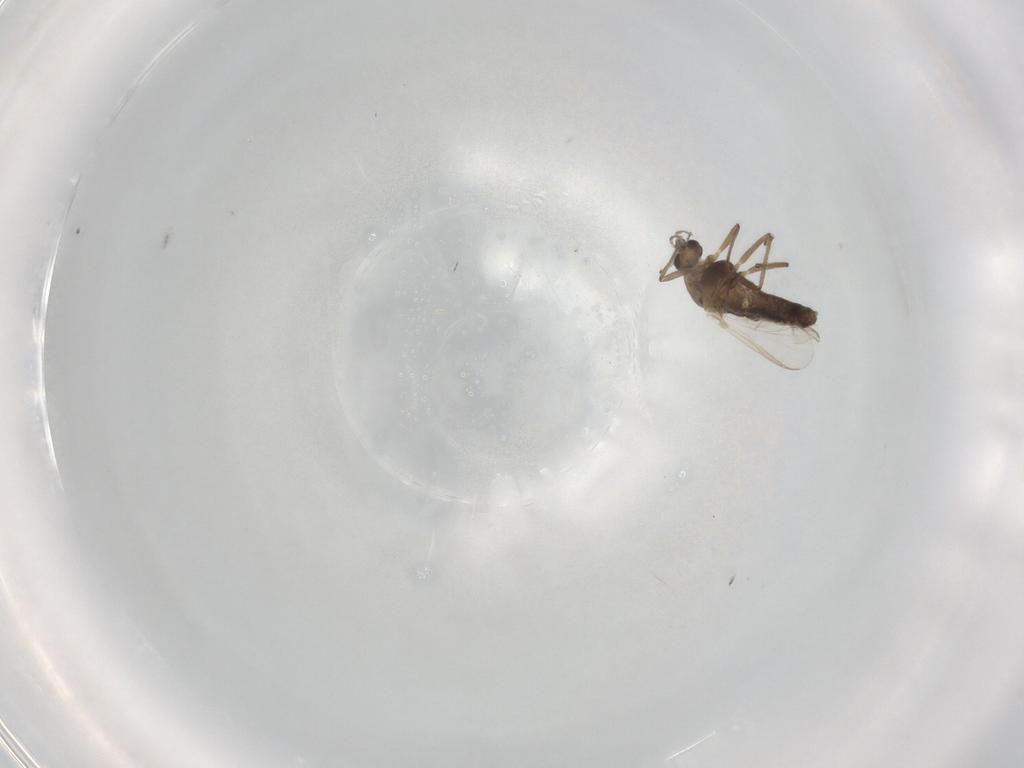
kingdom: Animalia
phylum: Arthropoda
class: Insecta
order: Diptera
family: Chironomidae
